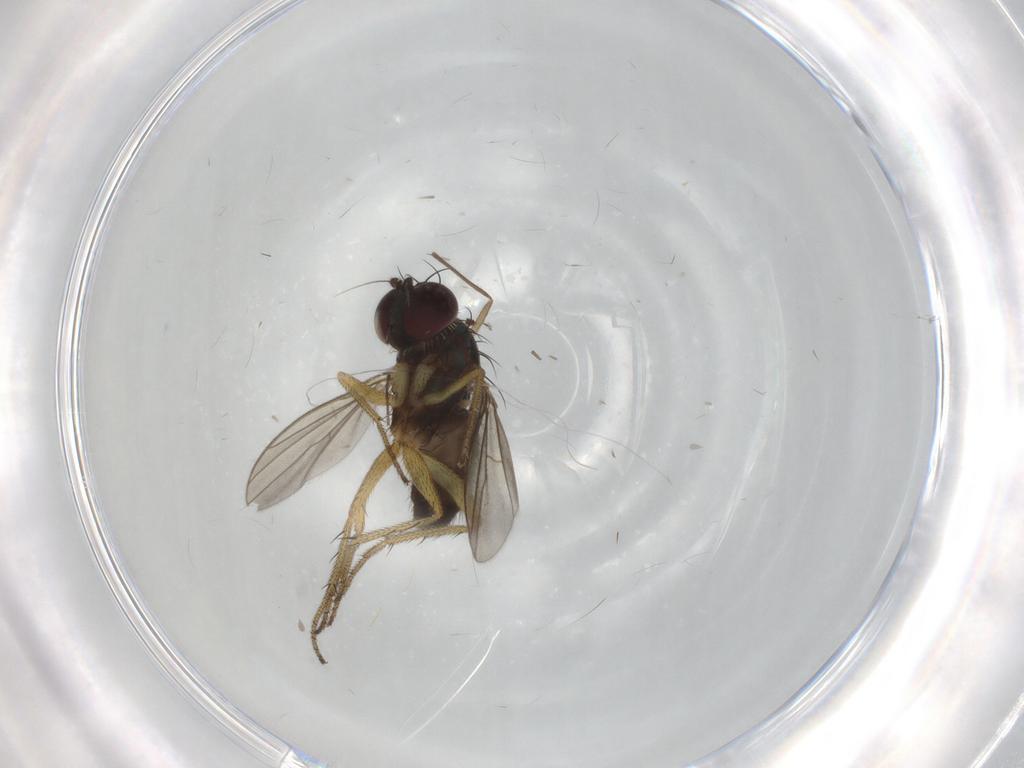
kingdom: Animalia
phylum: Arthropoda
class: Insecta
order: Diptera
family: Dolichopodidae
